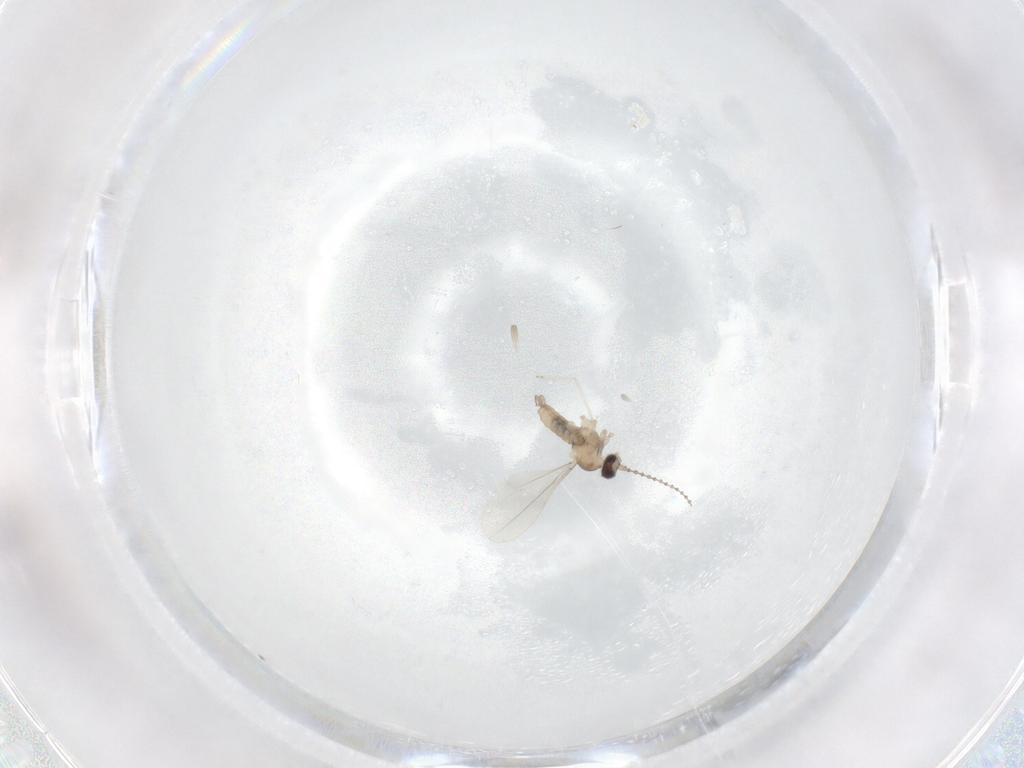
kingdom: Animalia
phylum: Arthropoda
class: Insecta
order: Diptera
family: Cecidomyiidae
